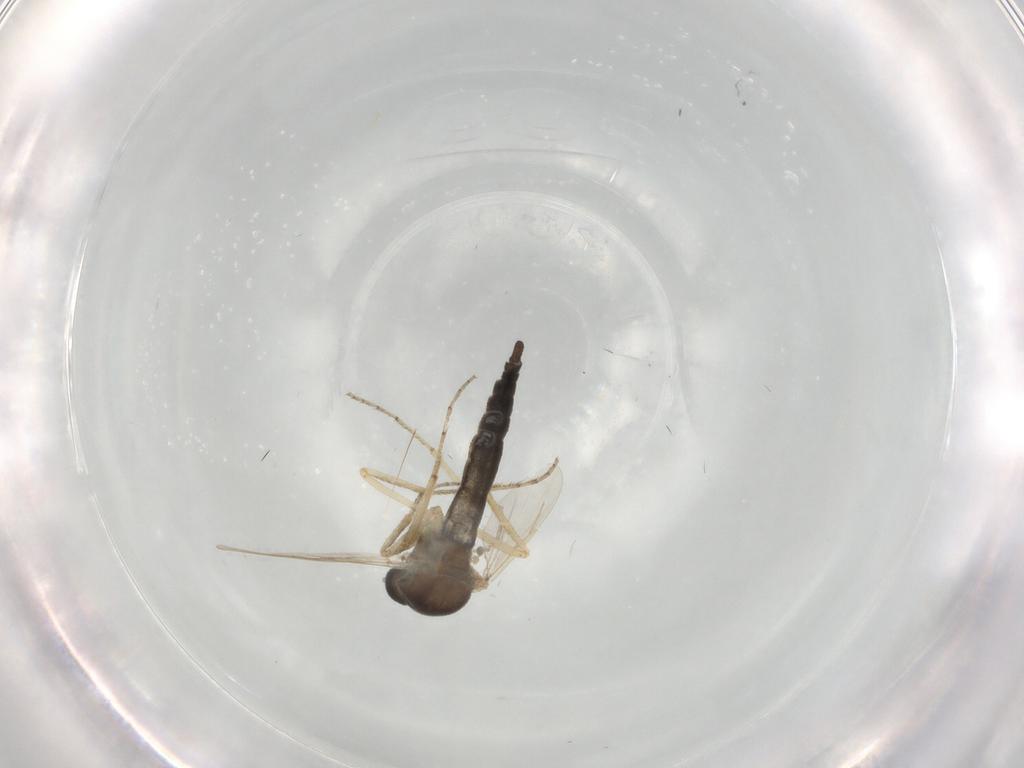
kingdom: Animalia
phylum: Arthropoda
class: Insecta
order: Diptera
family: Ceratopogonidae
